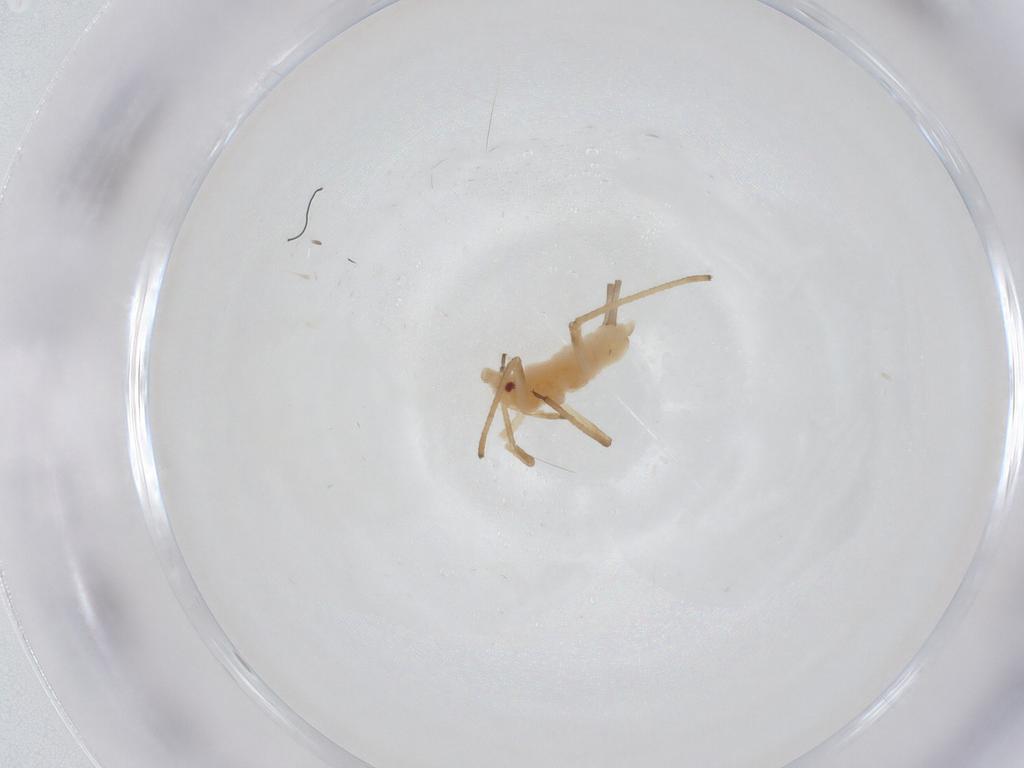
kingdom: Animalia
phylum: Arthropoda
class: Insecta
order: Hemiptera
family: Aphididae
